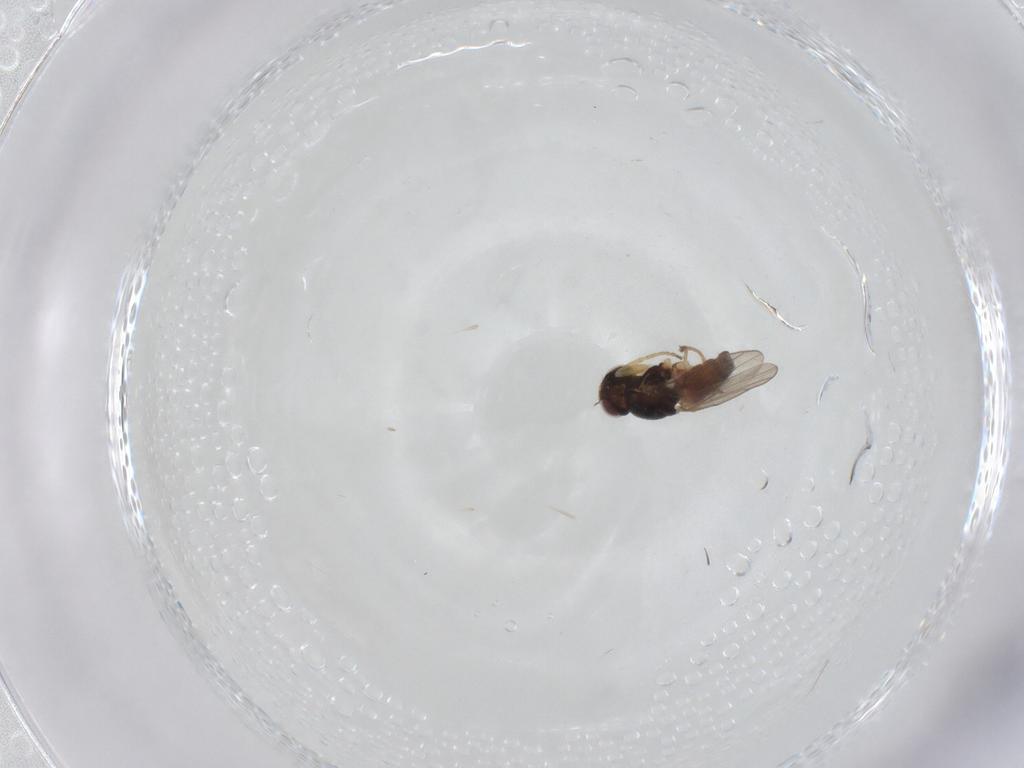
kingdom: Animalia
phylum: Arthropoda
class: Insecta
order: Diptera
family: Chloropidae
